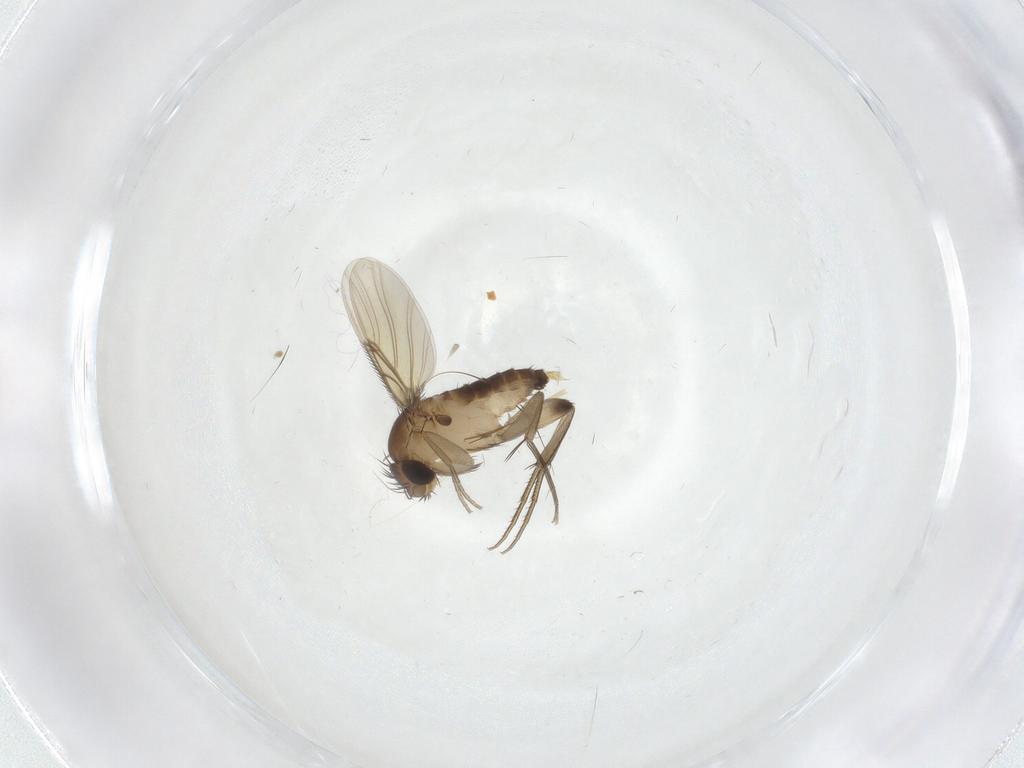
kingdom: Animalia
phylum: Arthropoda
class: Insecta
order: Diptera
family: Phoridae
